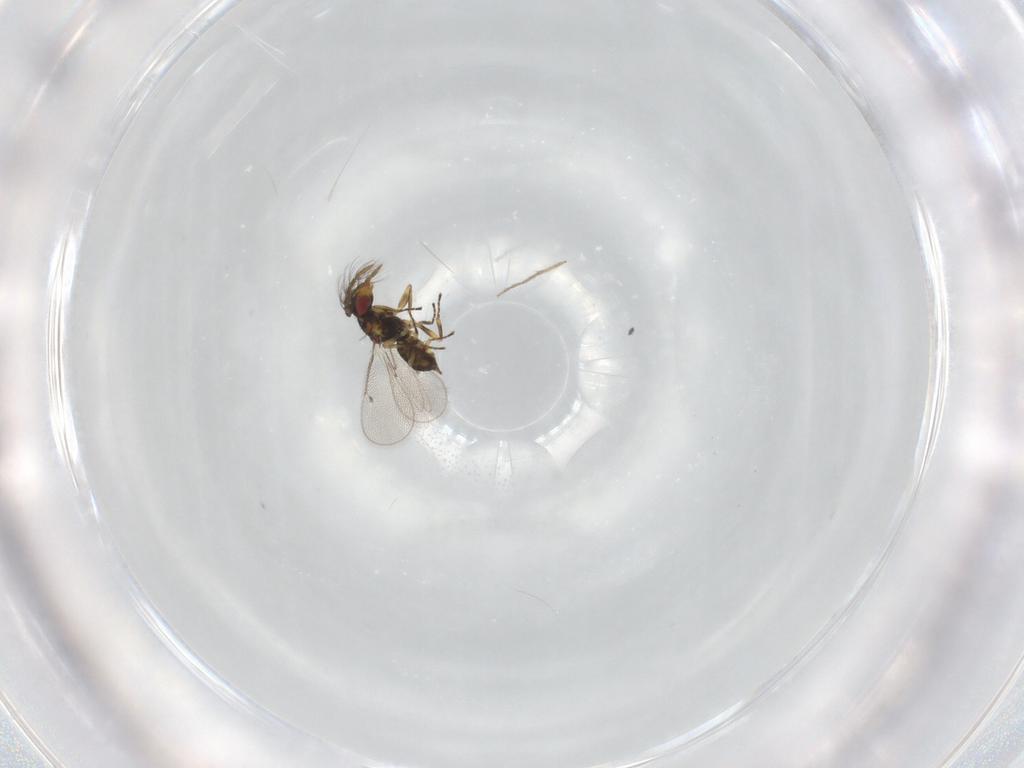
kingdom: Animalia
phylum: Arthropoda
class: Insecta
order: Hymenoptera
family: Eulophidae
